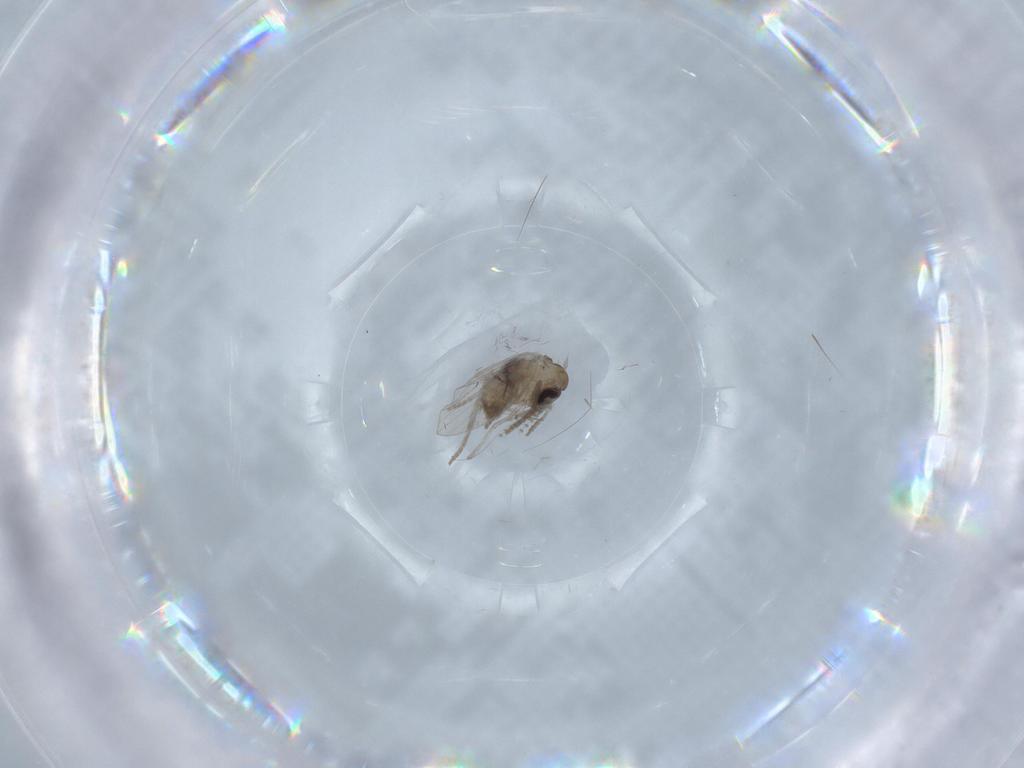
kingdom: Animalia
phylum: Arthropoda
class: Insecta
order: Diptera
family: Psychodidae
